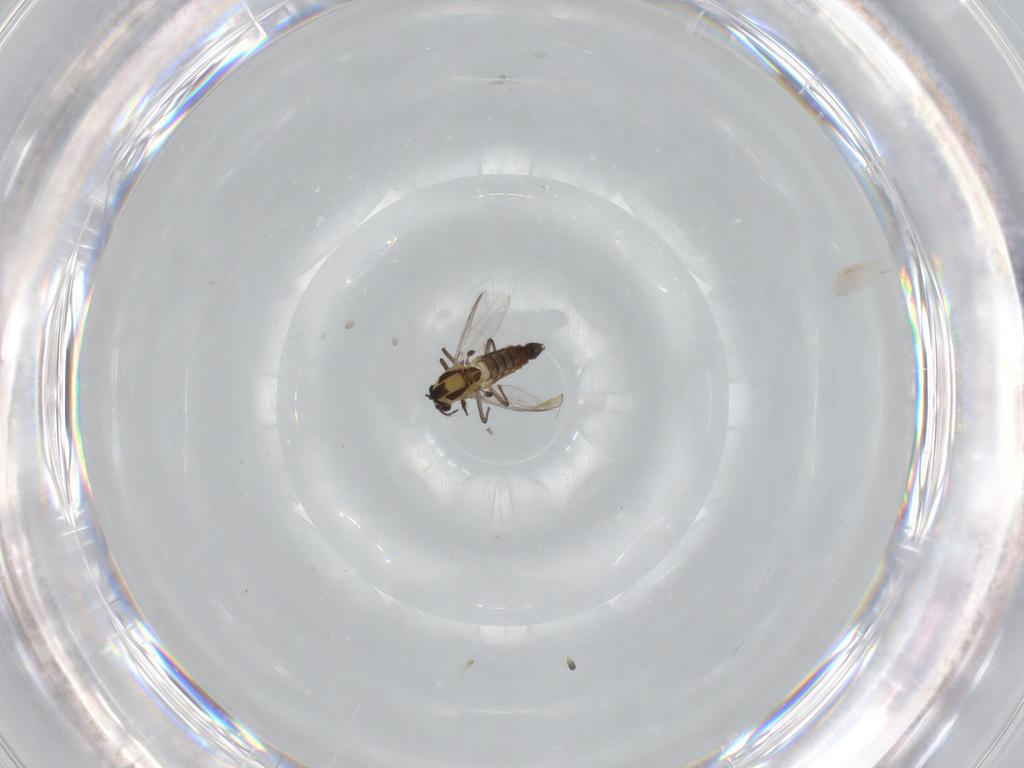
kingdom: Animalia
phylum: Arthropoda
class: Insecta
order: Diptera
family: Chironomidae
